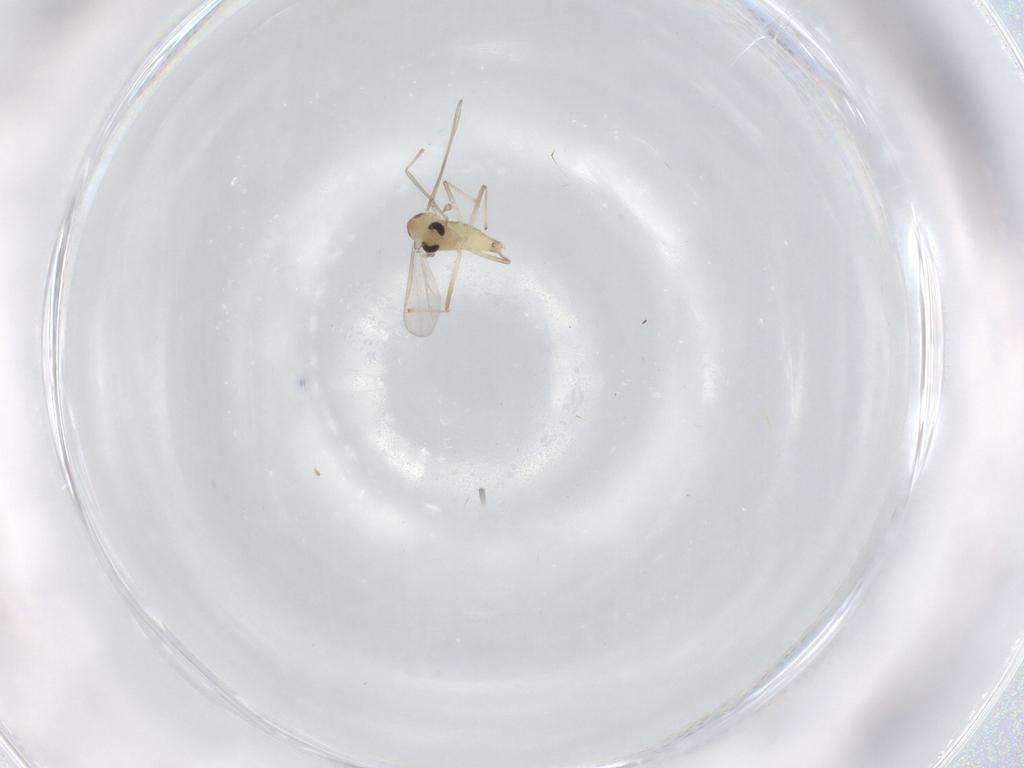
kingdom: Animalia
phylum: Arthropoda
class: Insecta
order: Diptera
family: Chironomidae
